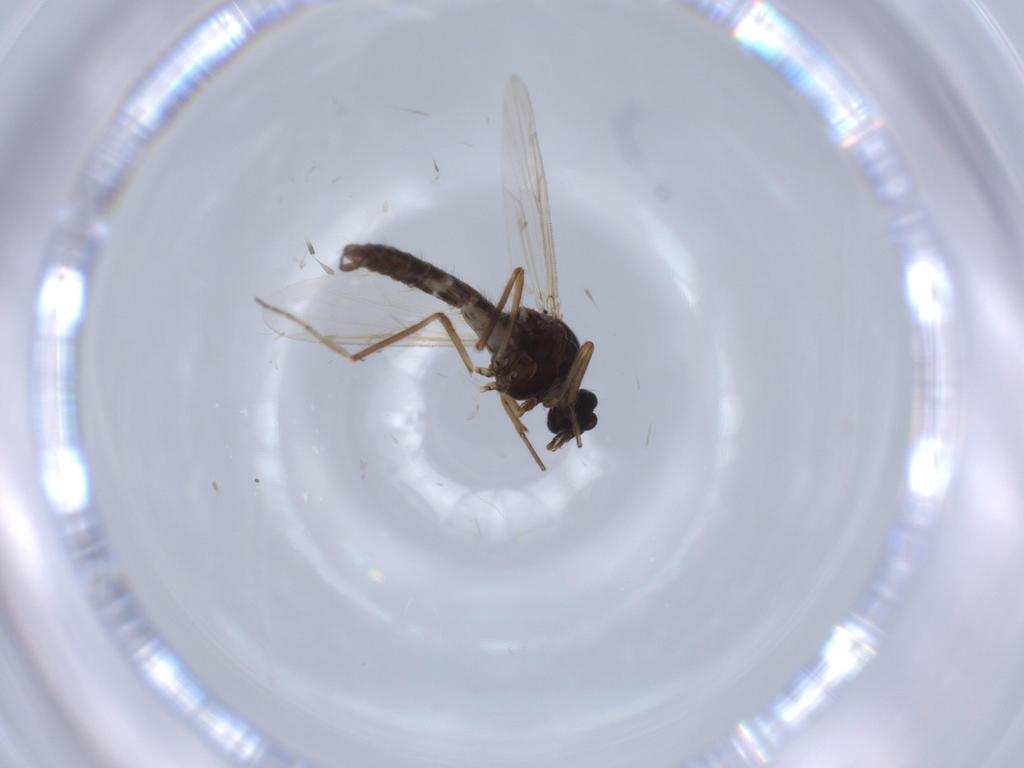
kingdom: Animalia
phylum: Arthropoda
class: Insecta
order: Diptera
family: Ceratopogonidae
